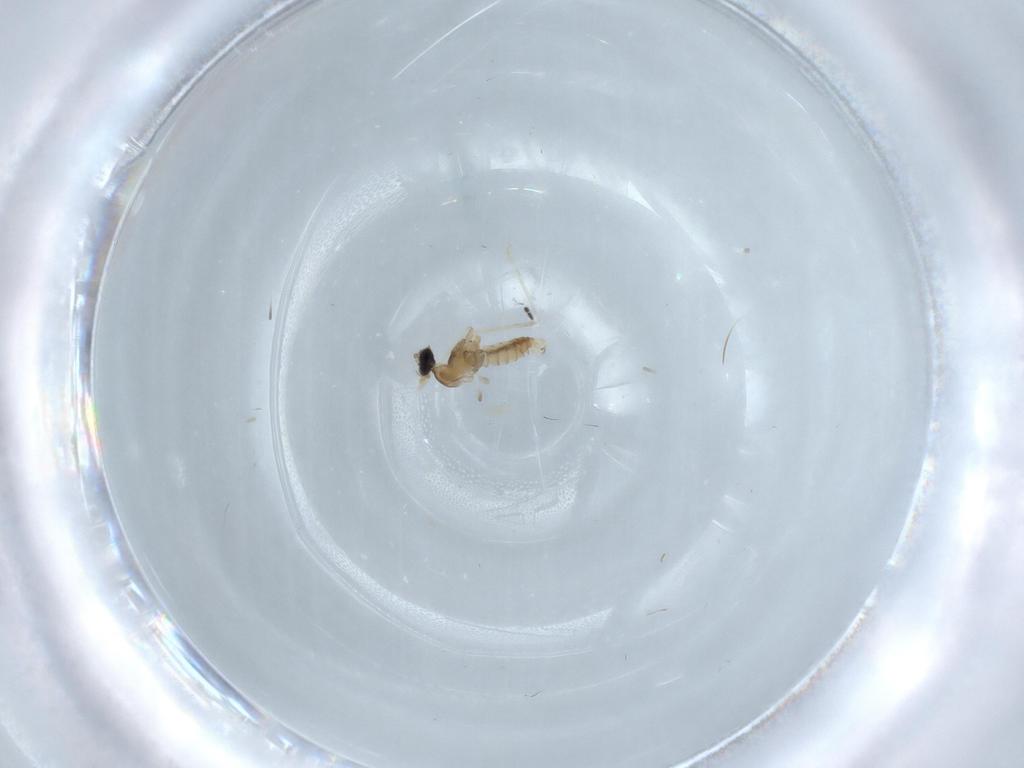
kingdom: Animalia
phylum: Arthropoda
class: Insecta
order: Diptera
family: Cecidomyiidae
